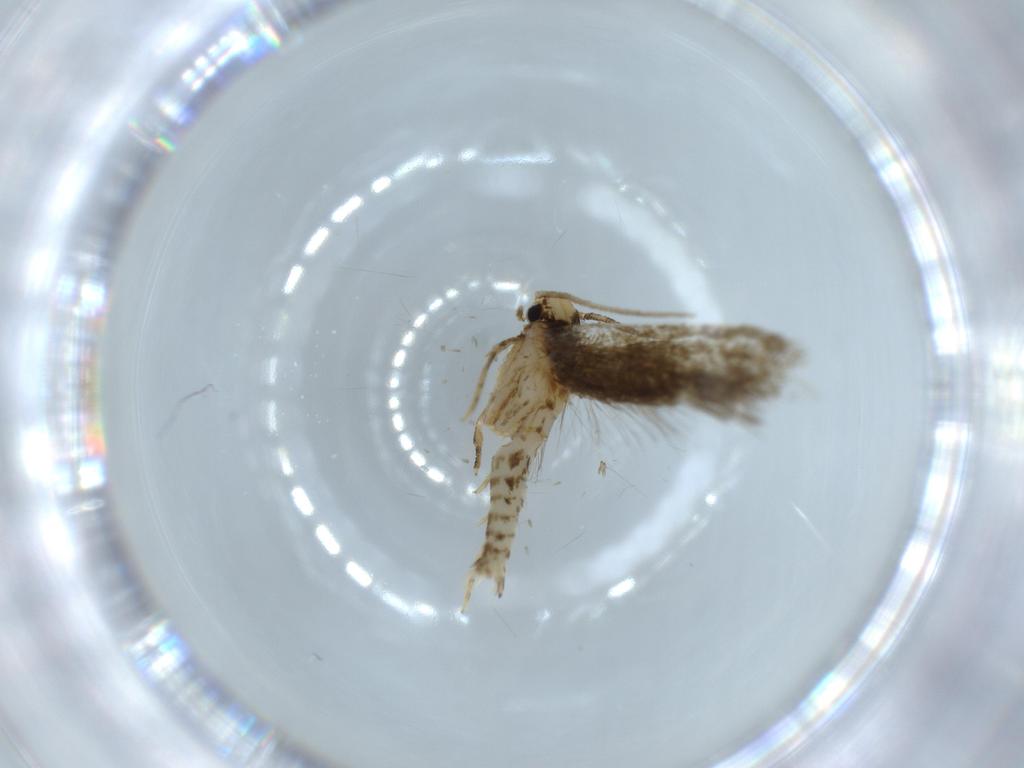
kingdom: Animalia
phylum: Arthropoda
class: Insecta
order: Lepidoptera
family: Tineidae
